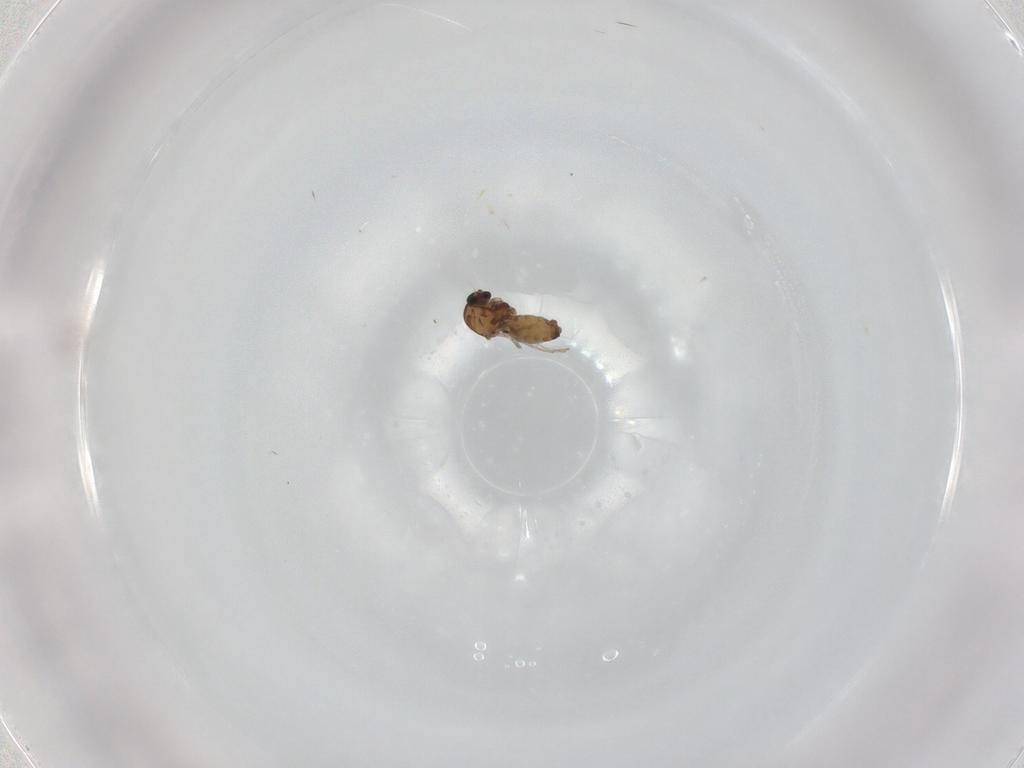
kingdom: Animalia
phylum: Arthropoda
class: Insecta
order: Diptera
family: Ceratopogonidae
